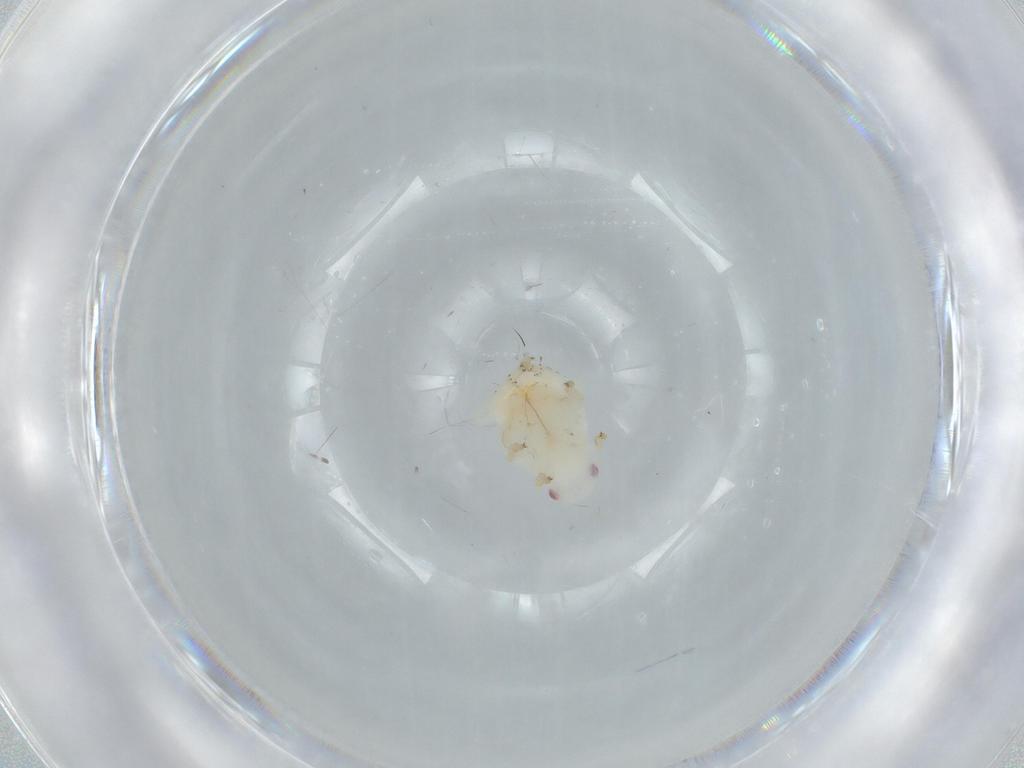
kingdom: Animalia
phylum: Arthropoda
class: Insecta
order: Hemiptera
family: Flatidae
